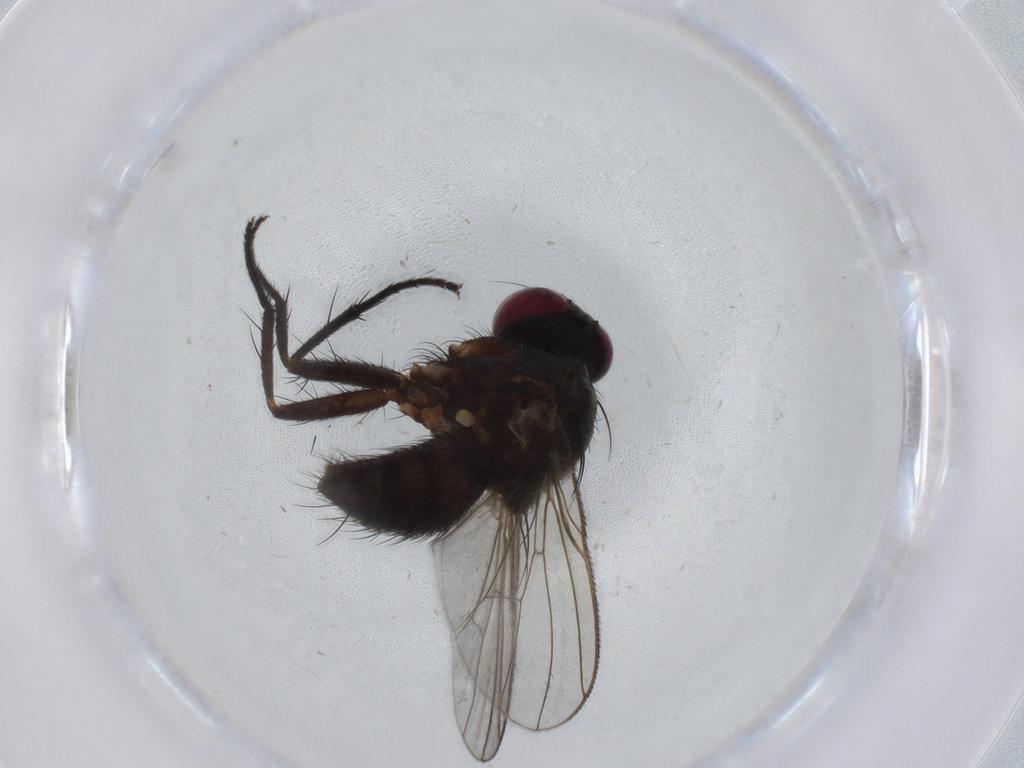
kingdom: Animalia
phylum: Arthropoda
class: Insecta
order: Diptera
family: Muscidae
